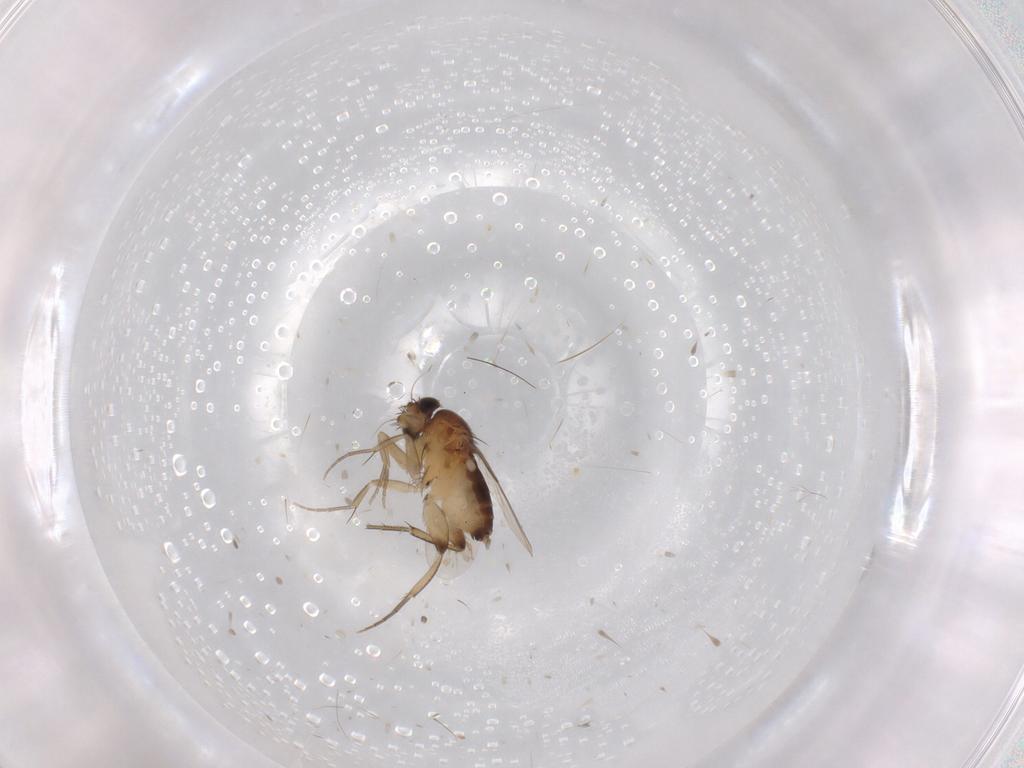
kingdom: Animalia
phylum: Arthropoda
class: Insecta
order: Diptera
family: Phoridae
